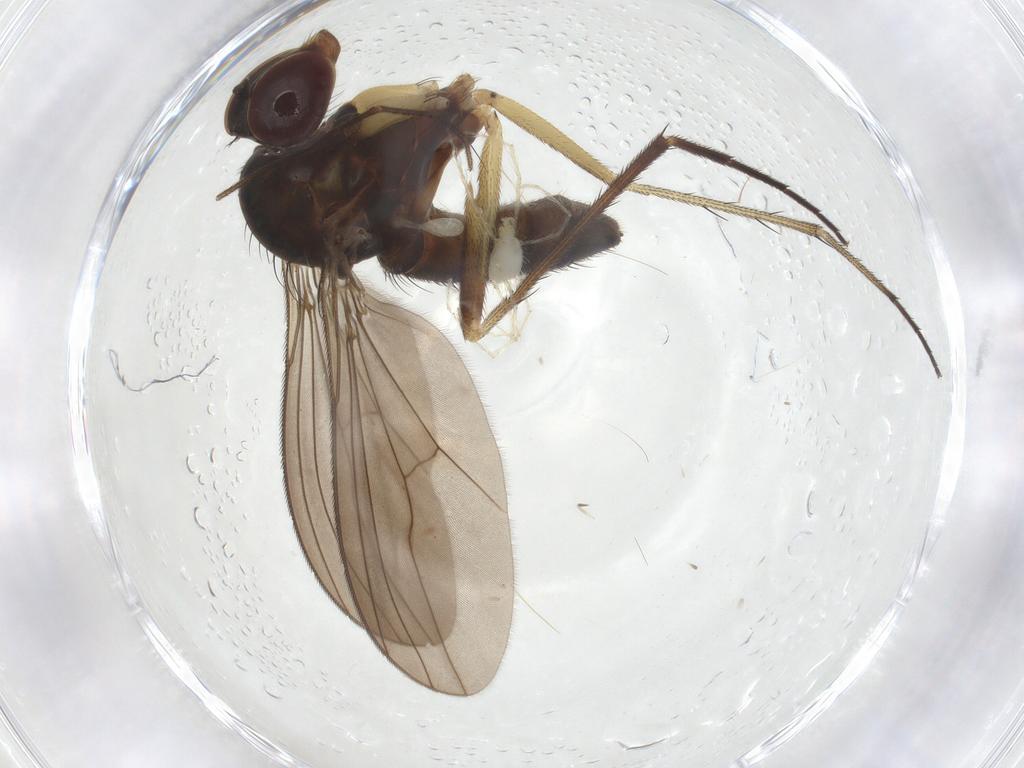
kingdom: Animalia
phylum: Arthropoda
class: Insecta
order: Diptera
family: Dolichopodidae
